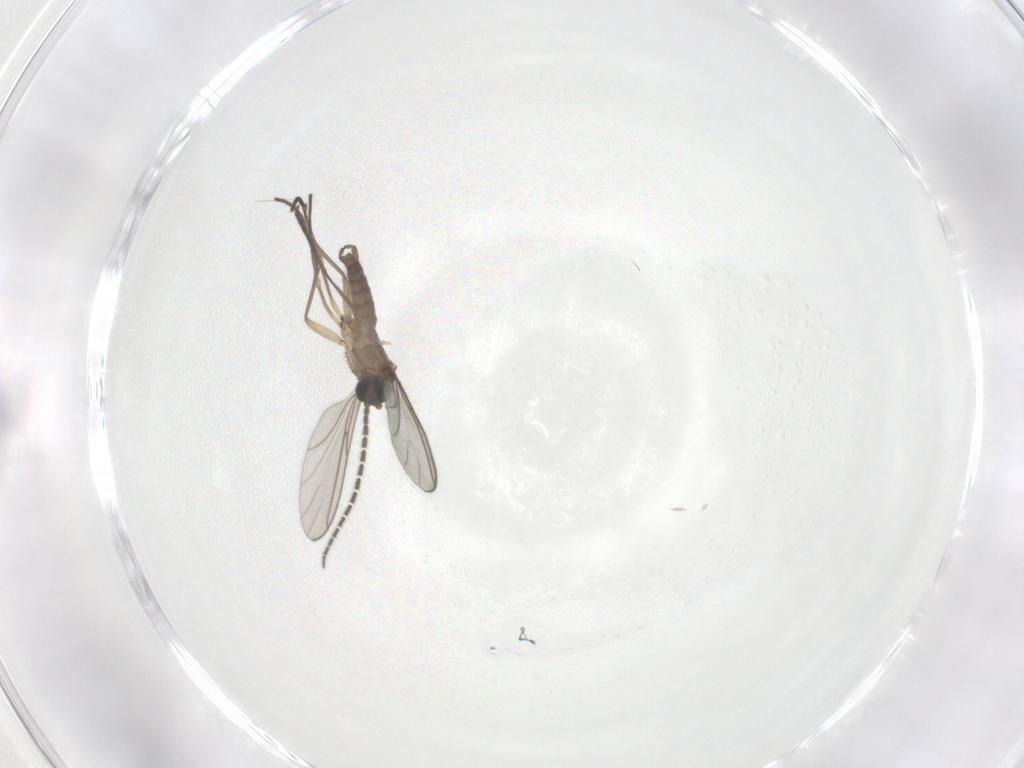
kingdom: Animalia
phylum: Arthropoda
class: Insecta
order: Diptera
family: Sciaridae
